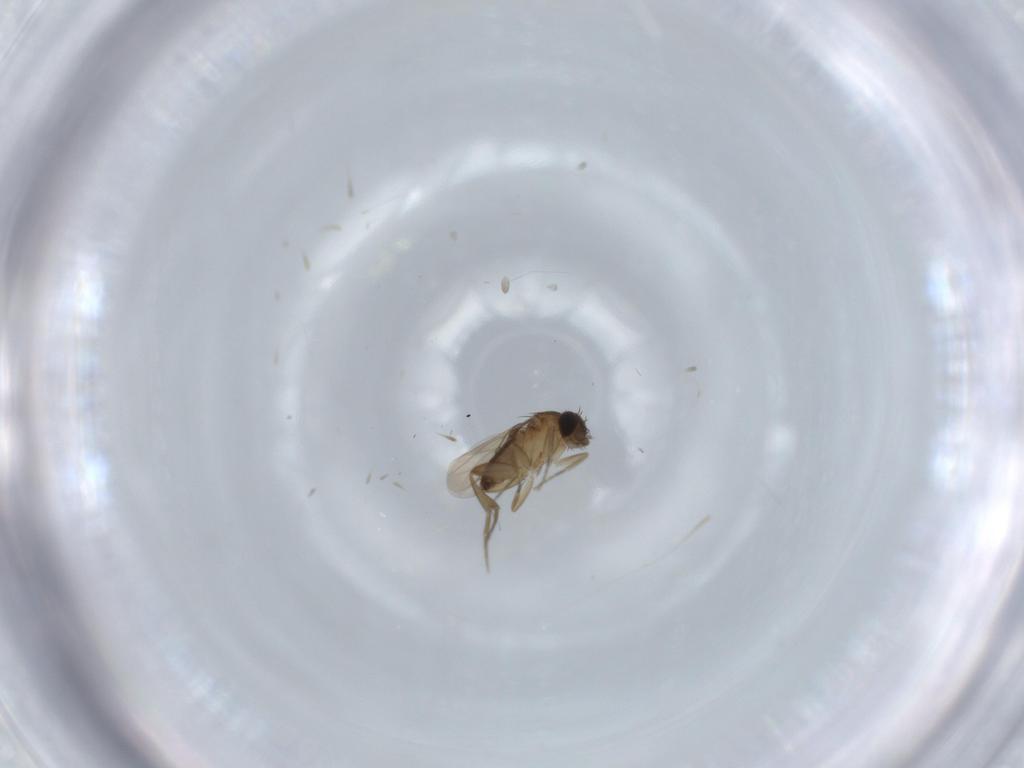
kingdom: Animalia
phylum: Arthropoda
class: Insecta
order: Diptera
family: Phoridae
